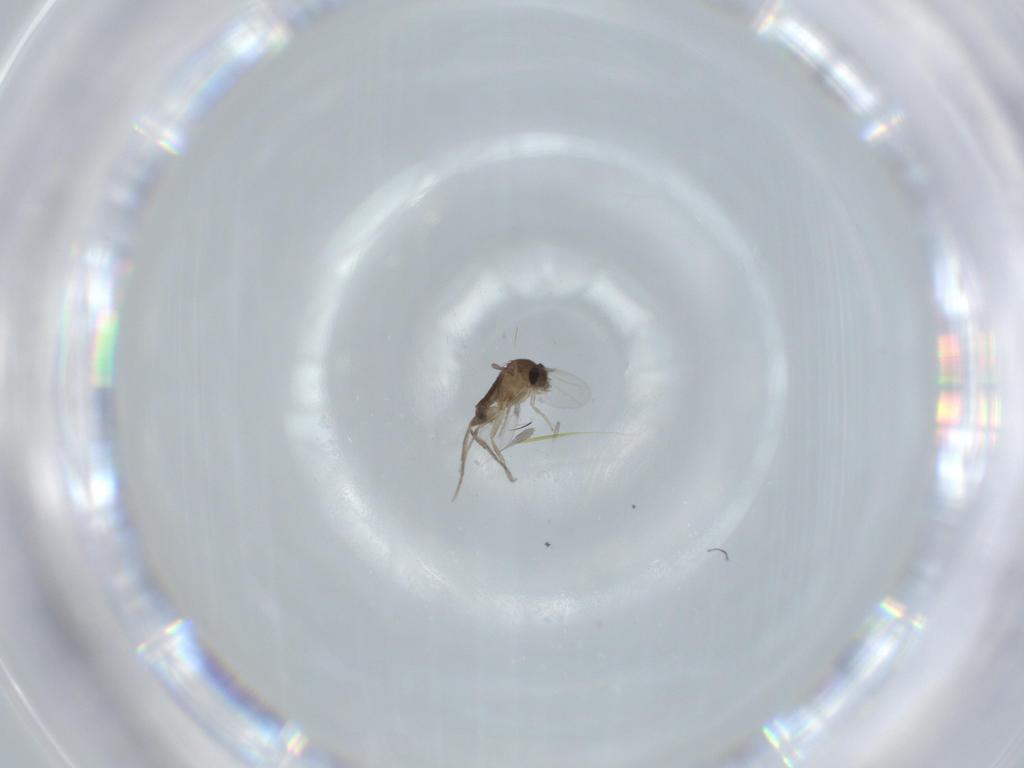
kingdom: Animalia
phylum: Arthropoda
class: Insecta
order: Diptera
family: Phoridae
